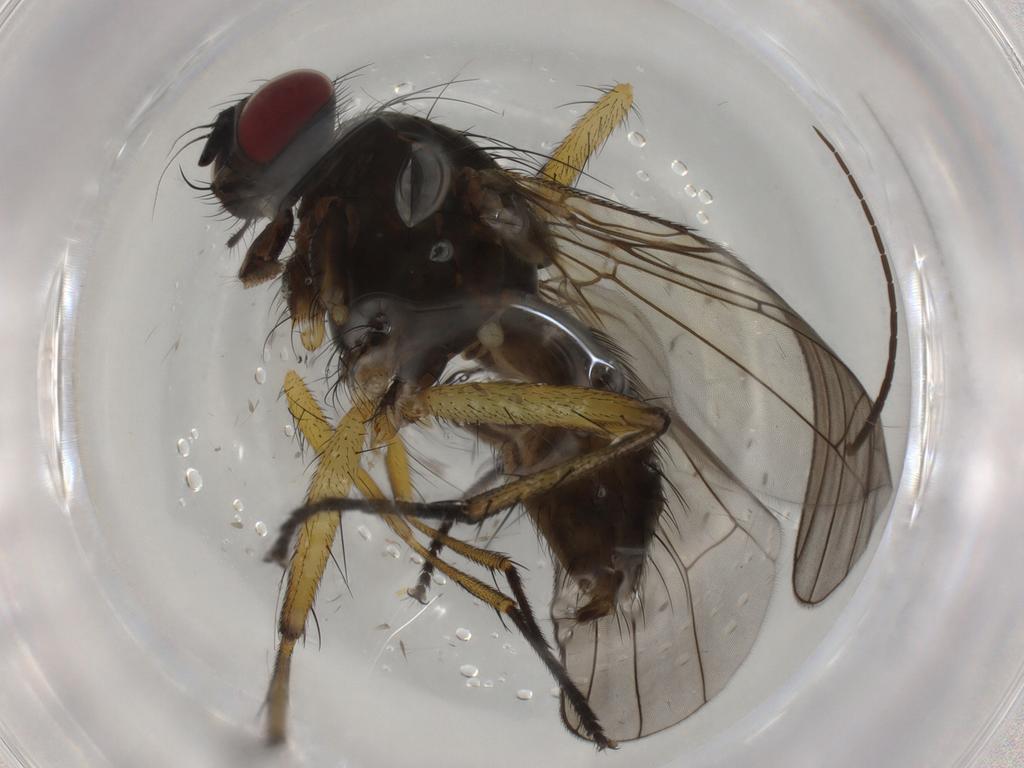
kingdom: Animalia
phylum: Arthropoda
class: Insecta
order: Diptera
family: Muscidae
